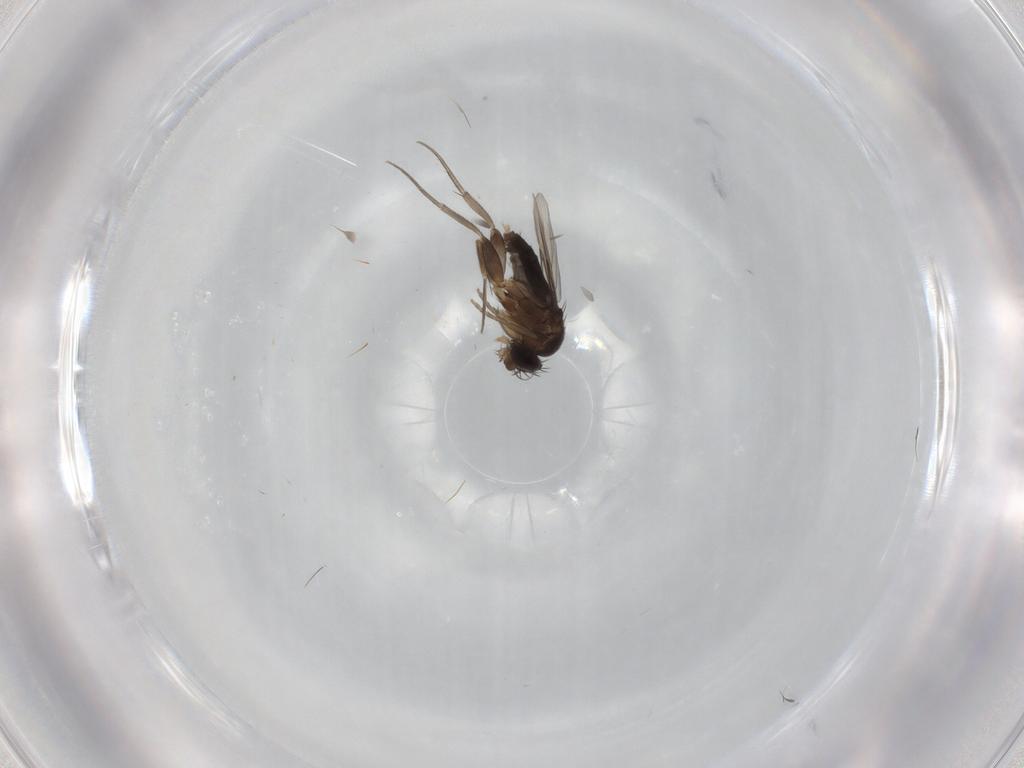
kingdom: Animalia
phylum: Arthropoda
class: Insecta
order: Diptera
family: Phoridae
